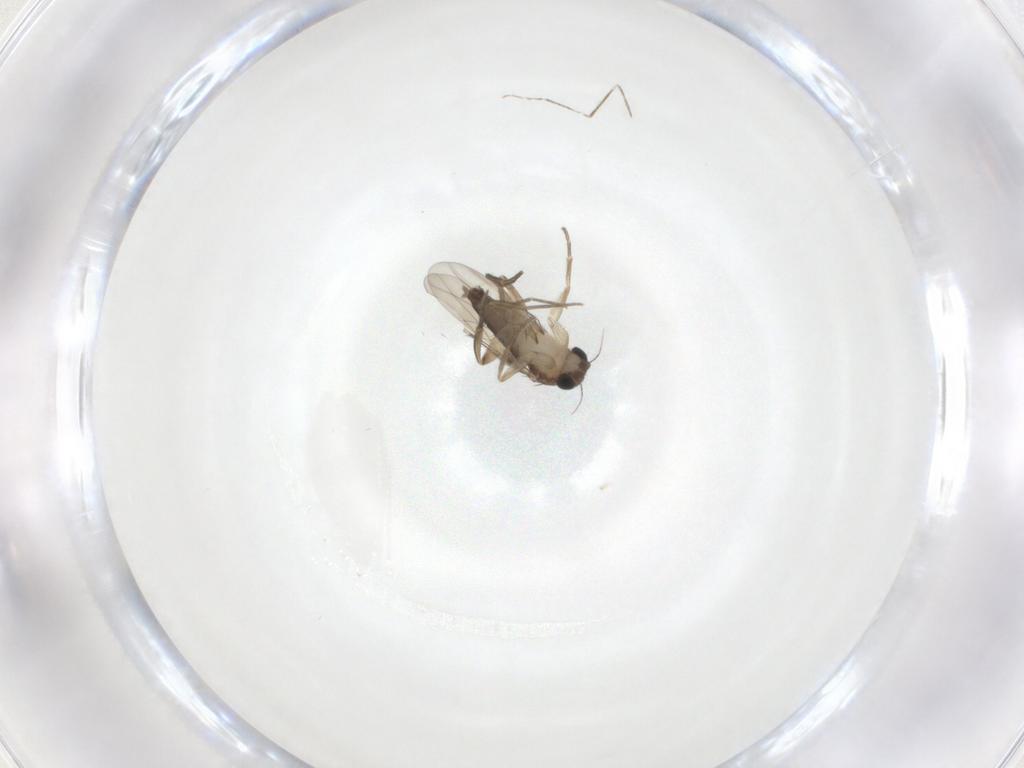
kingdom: Animalia
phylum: Arthropoda
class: Insecta
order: Diptera
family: Phoridae
